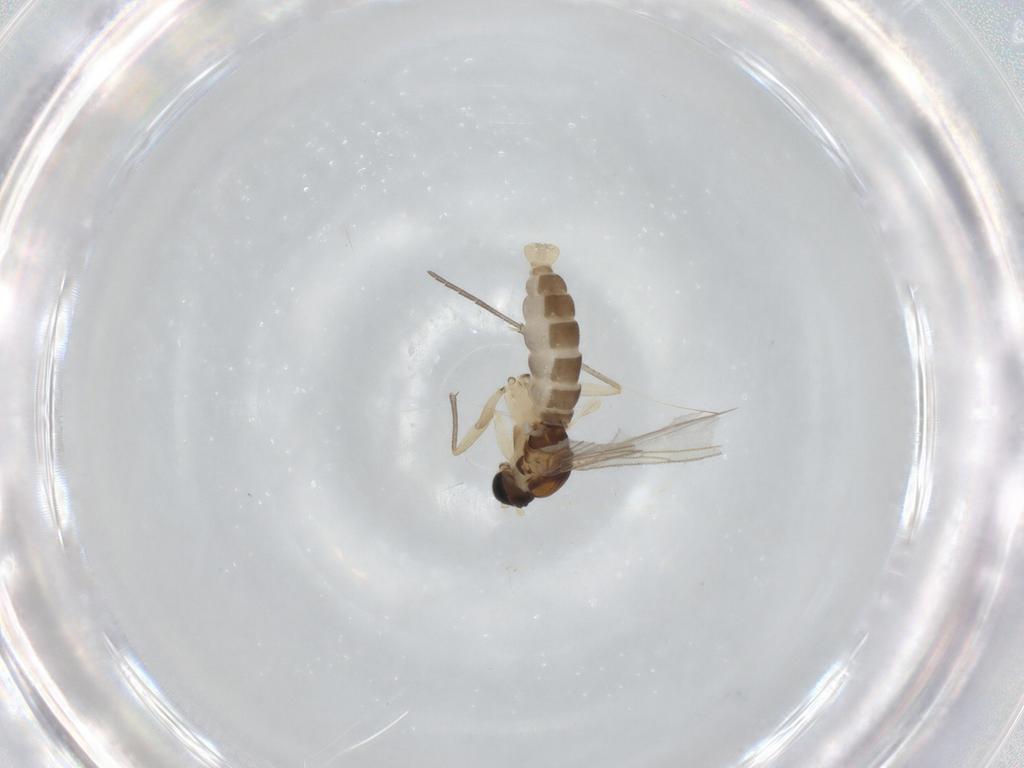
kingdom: Animalia
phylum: Arthropoda
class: Insecta
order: Diptera
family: Sciaridae
